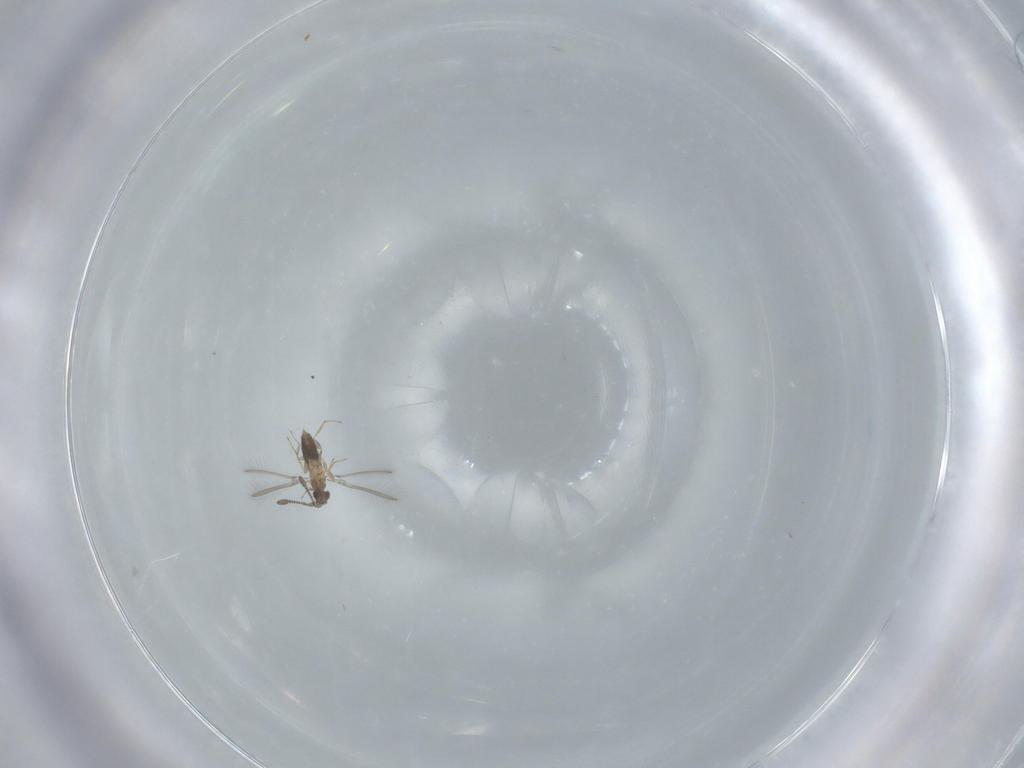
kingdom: Animalia
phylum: Arthropoda
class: Insecta
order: Hymenoptera
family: Mymaridae
